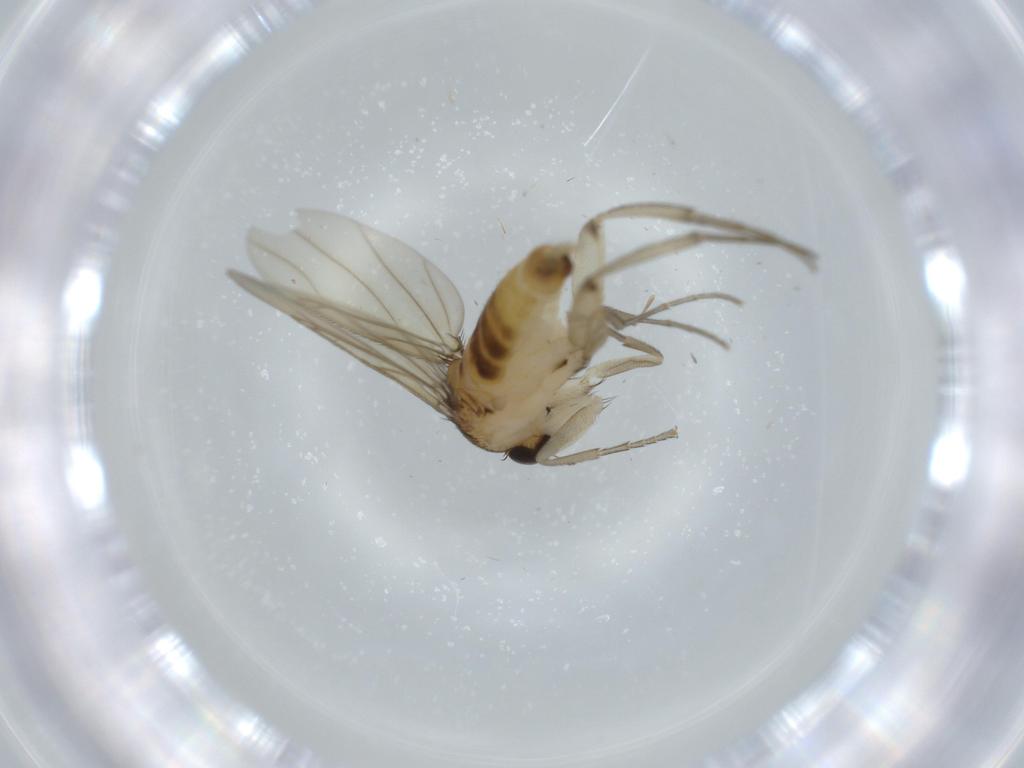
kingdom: Animalia
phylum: Arthropoda
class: Insecta
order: Diptera
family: Phoridae
